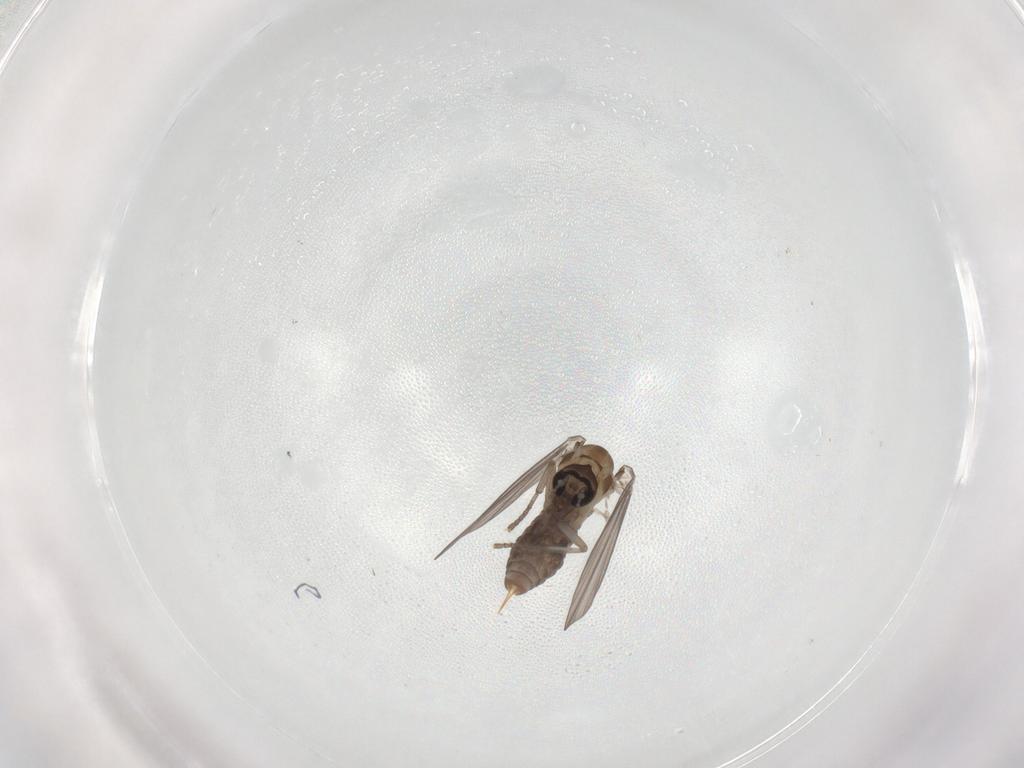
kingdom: Animalia
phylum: Arthropoda
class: Insecta
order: Diptera
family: Psychodidae
